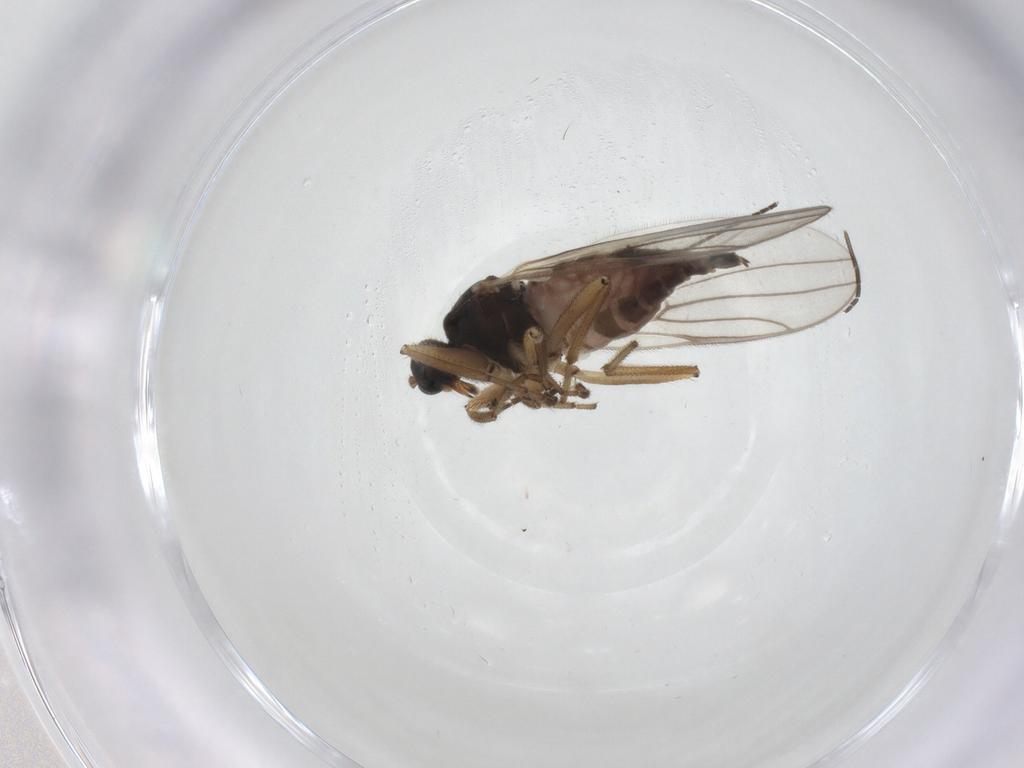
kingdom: Animalia
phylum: Arthropoda
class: Insecta
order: Diptera
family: Hybotidae
